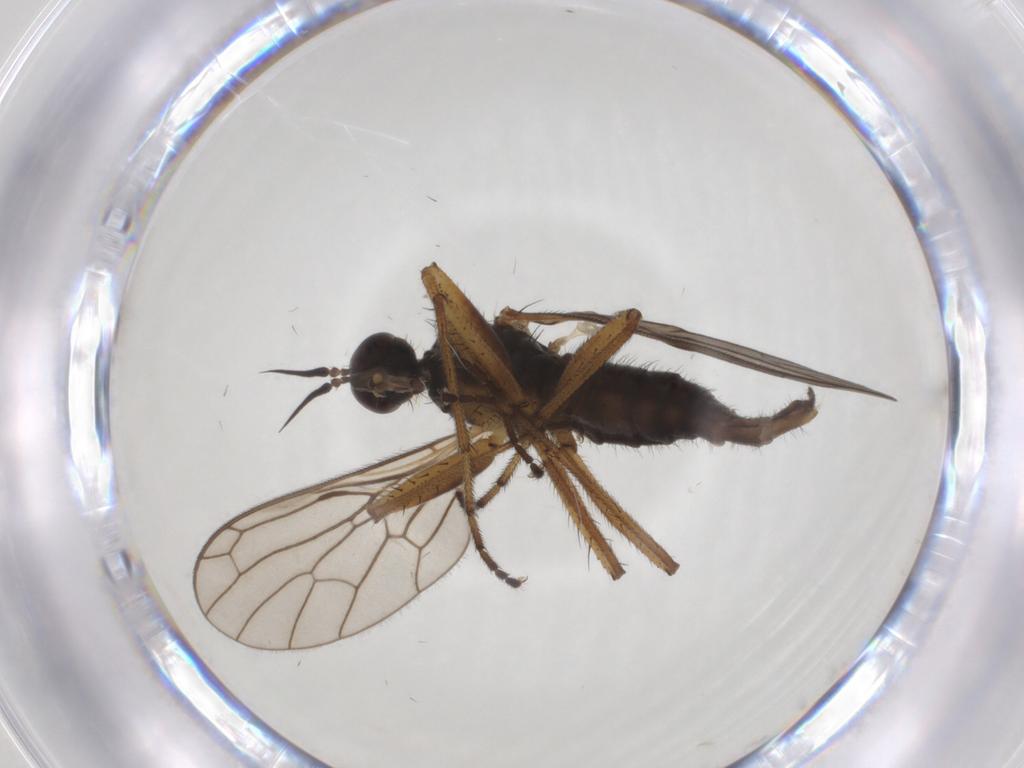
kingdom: Animalia
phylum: Arthropoda
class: Insecta
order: Diptera
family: Empididae
